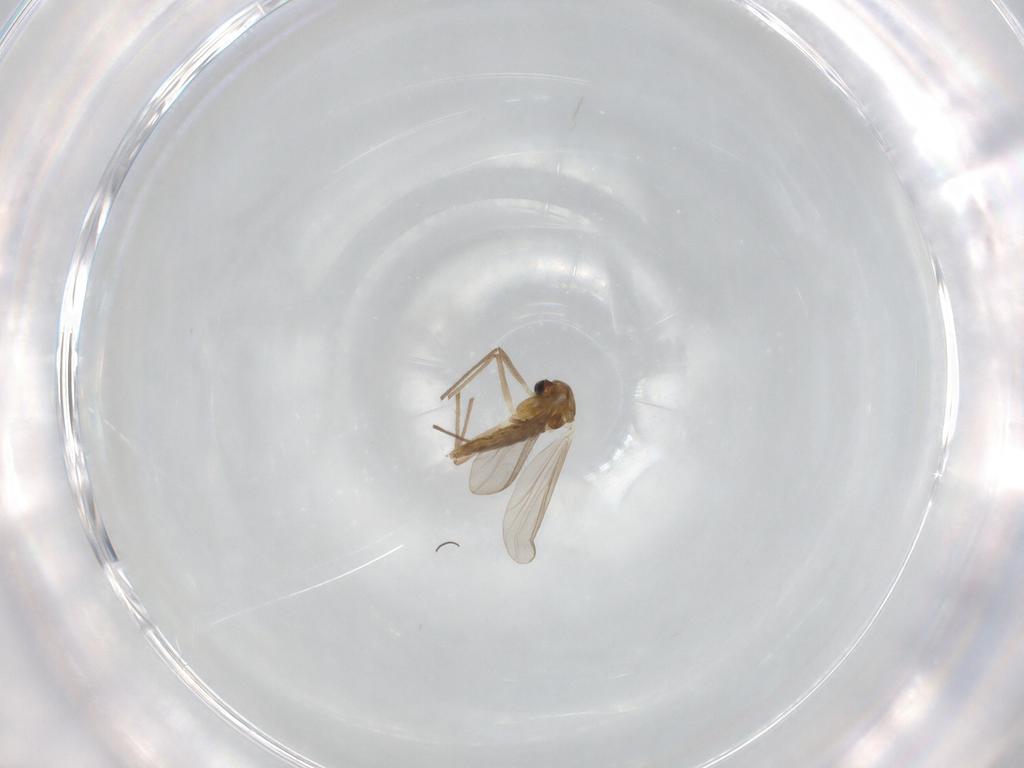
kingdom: Animalia
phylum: Arthropoda
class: Insecta
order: Diptera
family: Chironomidae
